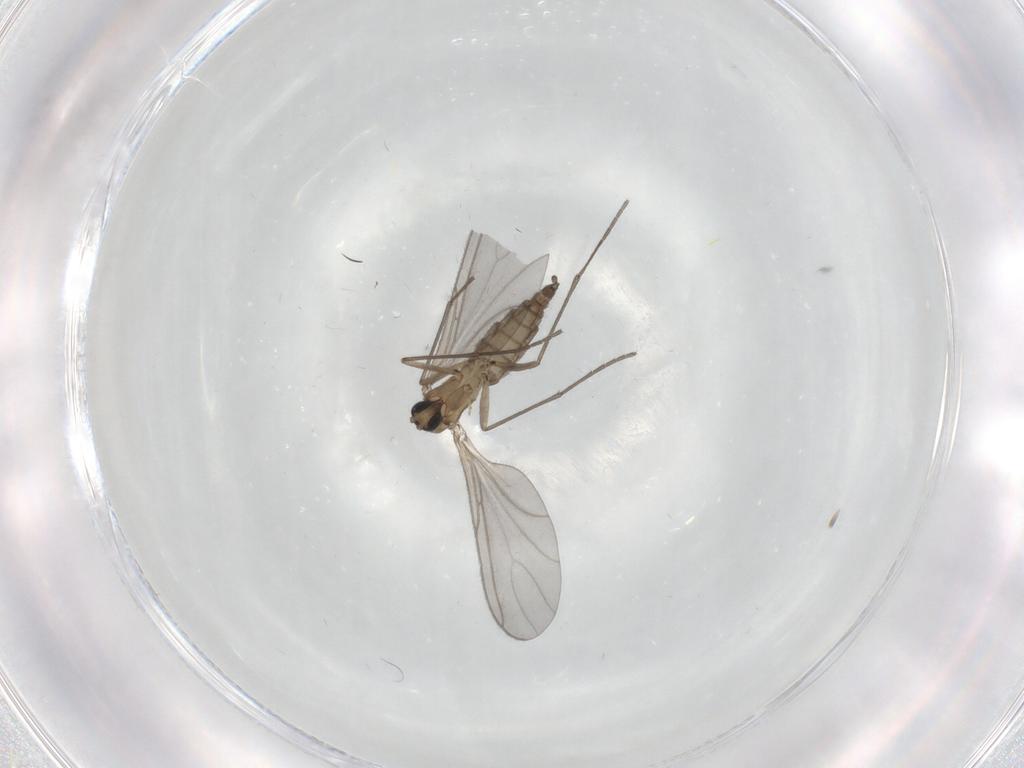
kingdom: Animalia
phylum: Arthropoda
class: Insecta
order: Diptera
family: Sciaridae
